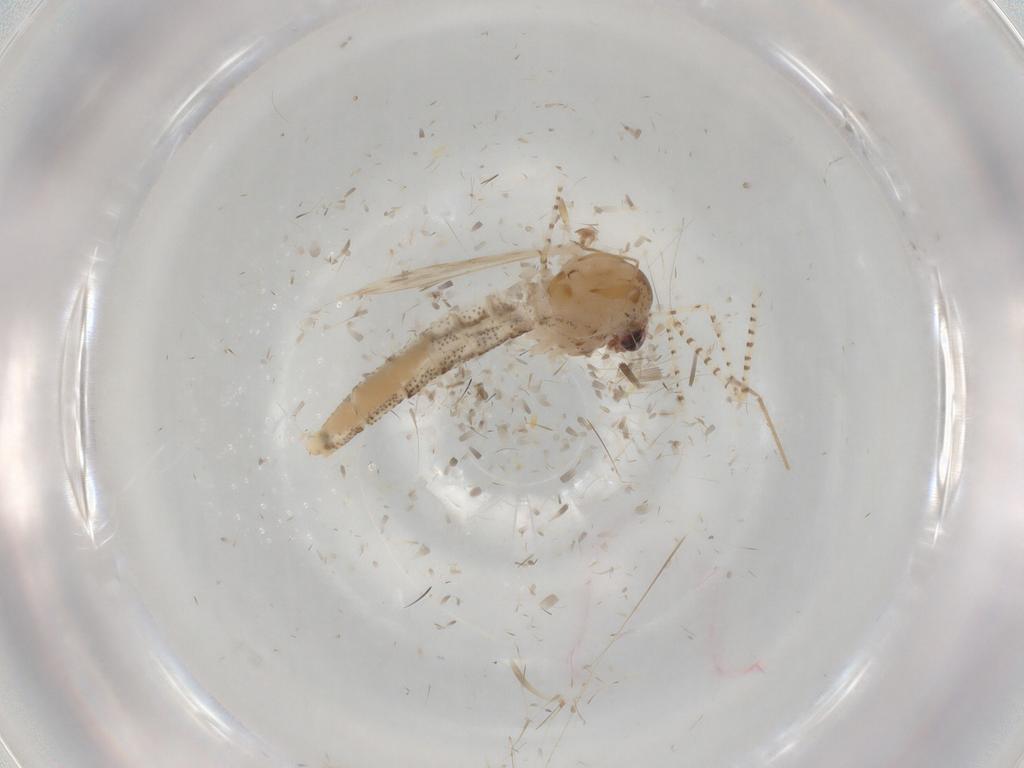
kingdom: Animalia
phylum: Arthropoda
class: Insecta
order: Diptera
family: Chaoboridae
